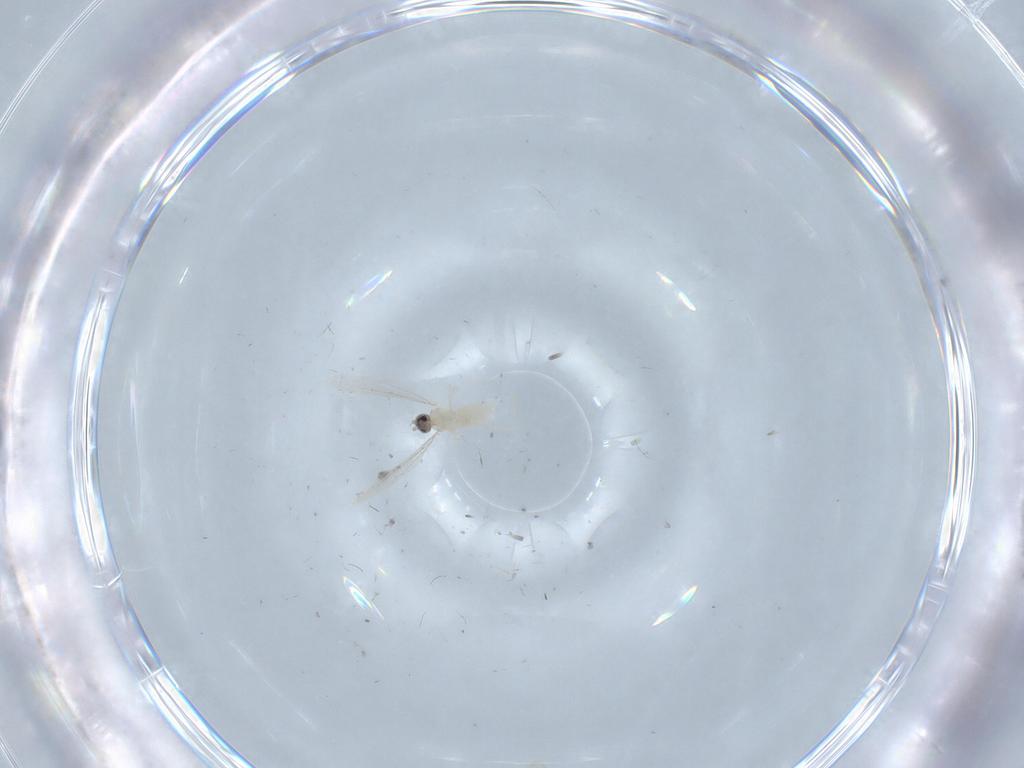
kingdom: Animalia
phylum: Arthropoda
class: Insecta
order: Diptera
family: Cecidomyiidae
